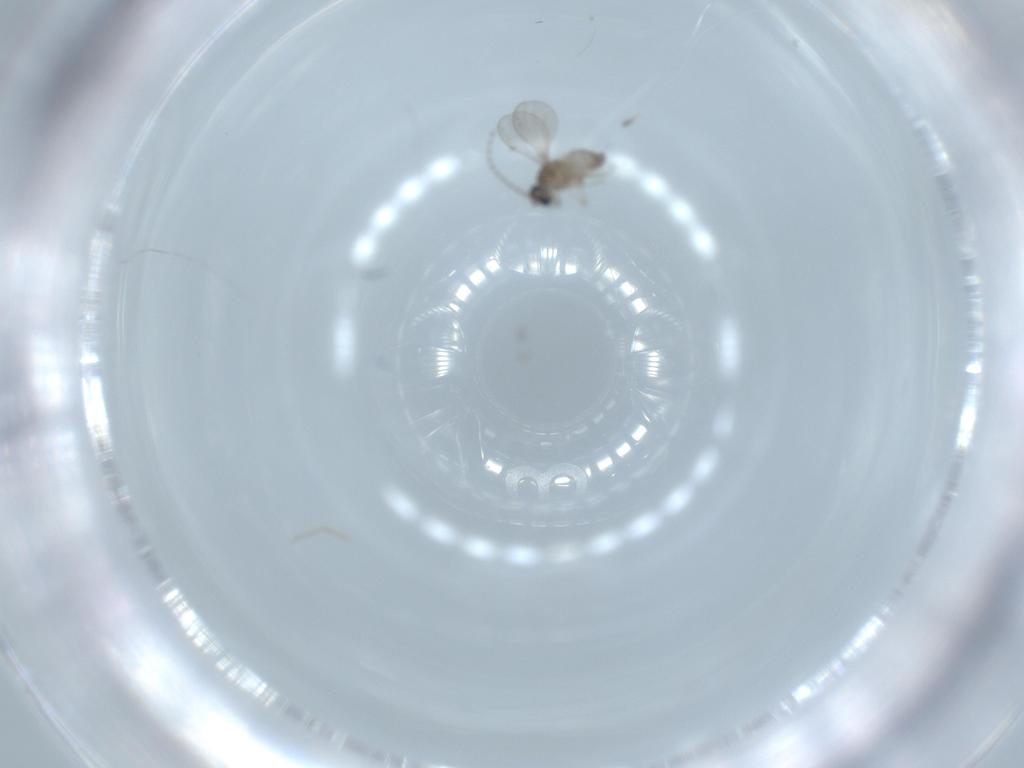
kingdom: Animalia
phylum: Arthropoda
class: Insecta
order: Diptera
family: Cecidomyiidae
